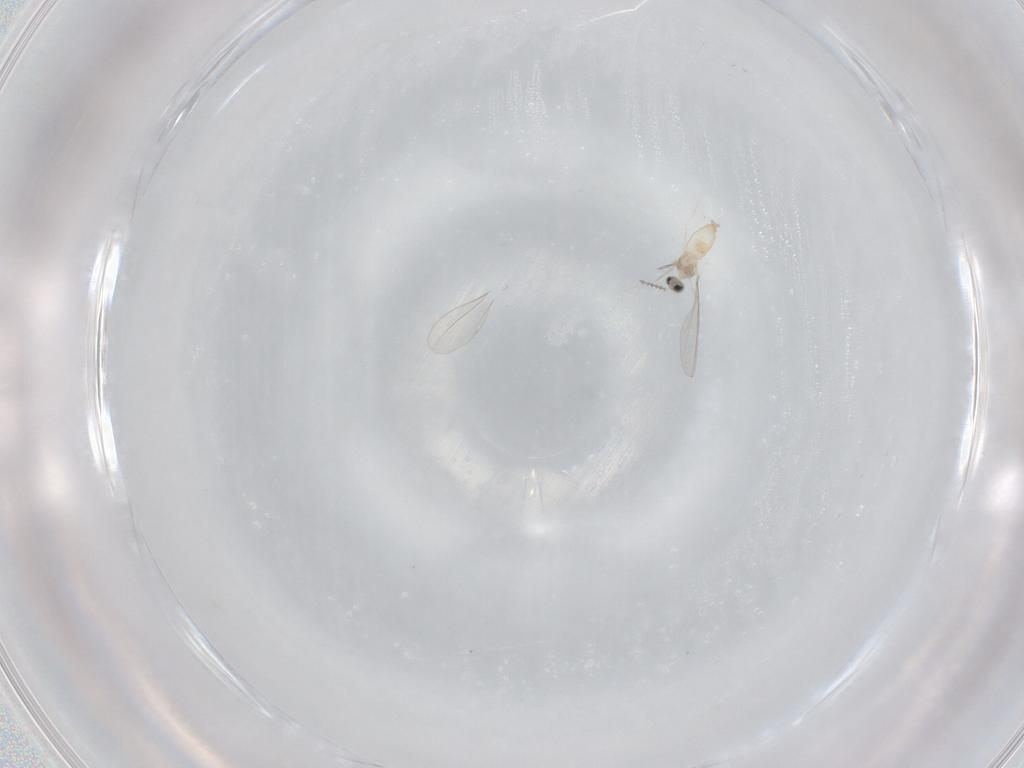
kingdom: Animalia
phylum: Arthropoda
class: Insecta
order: Diptera
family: Cecidomyiidae
